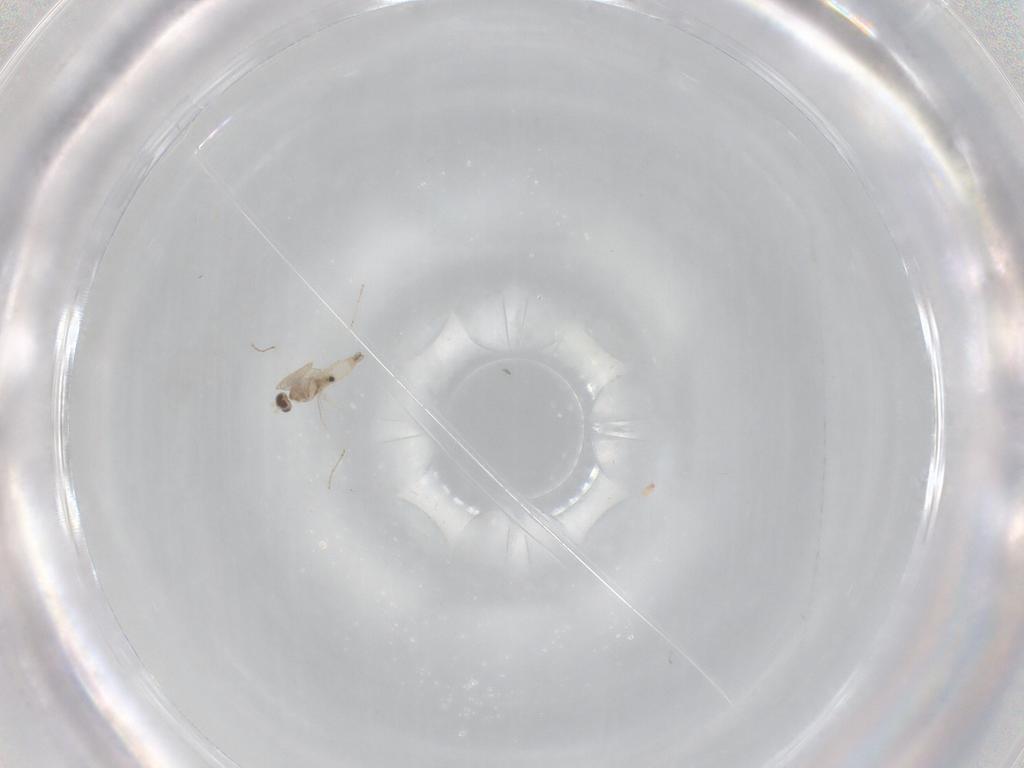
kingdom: Animalia
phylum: Arthropoda
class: Insecta
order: Diptera
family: Cecidomyiidae
